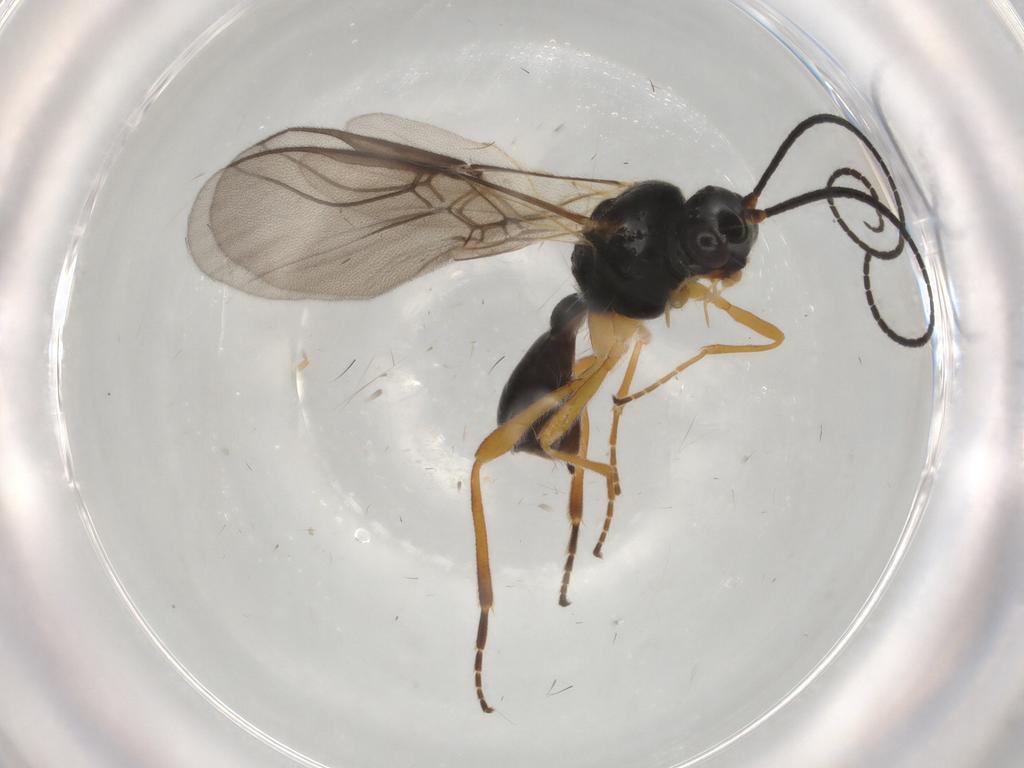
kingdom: Animalia
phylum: Arthropoda
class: Insecta
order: Hymenoptera
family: Braconidae
